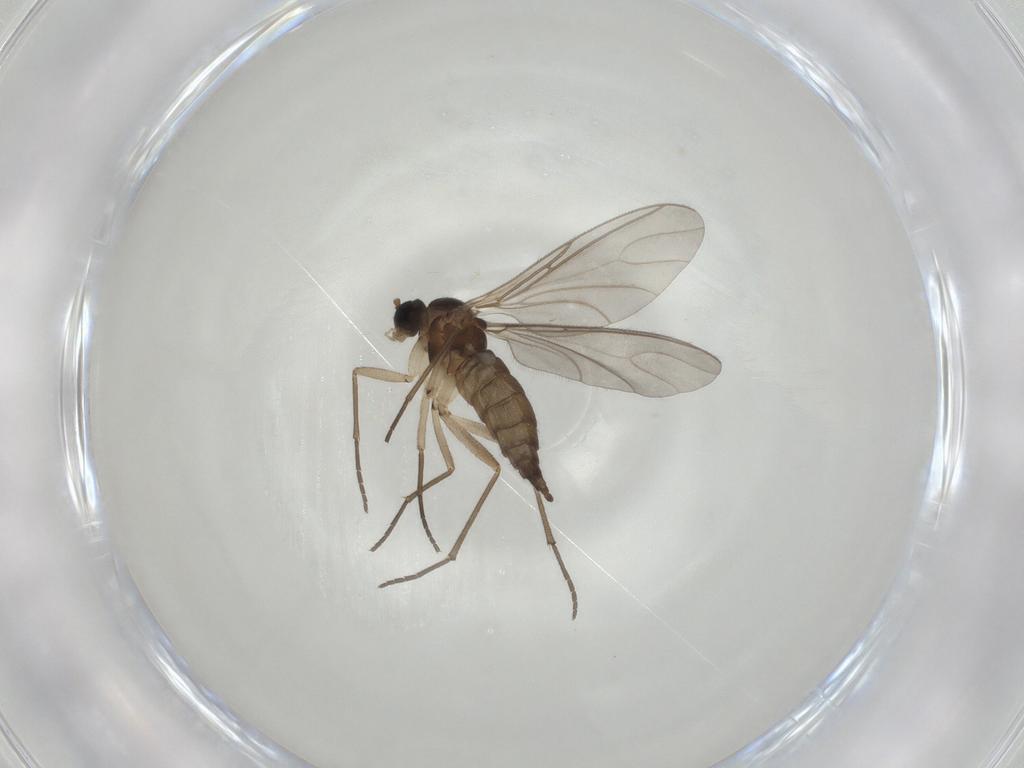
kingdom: Animalia
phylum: Arthropoda
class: Insecta
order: Diptera
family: Sciaridae
